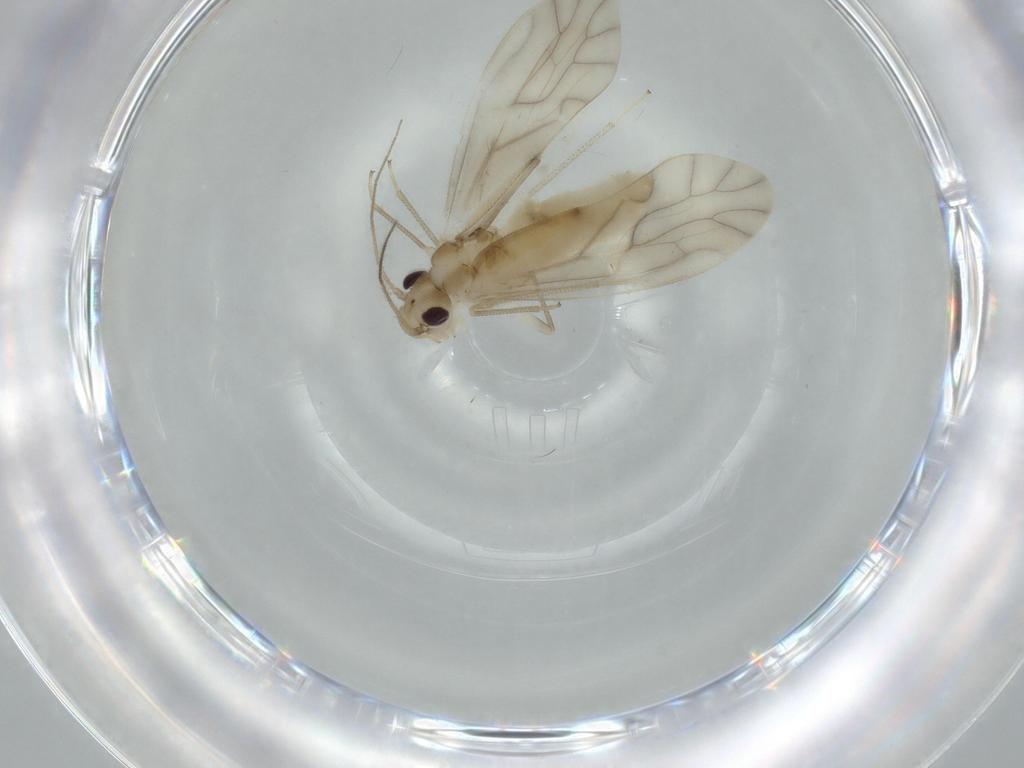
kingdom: Animalia
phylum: Arthropoda
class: Insecta
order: Psocodea
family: Caeciliusidae
